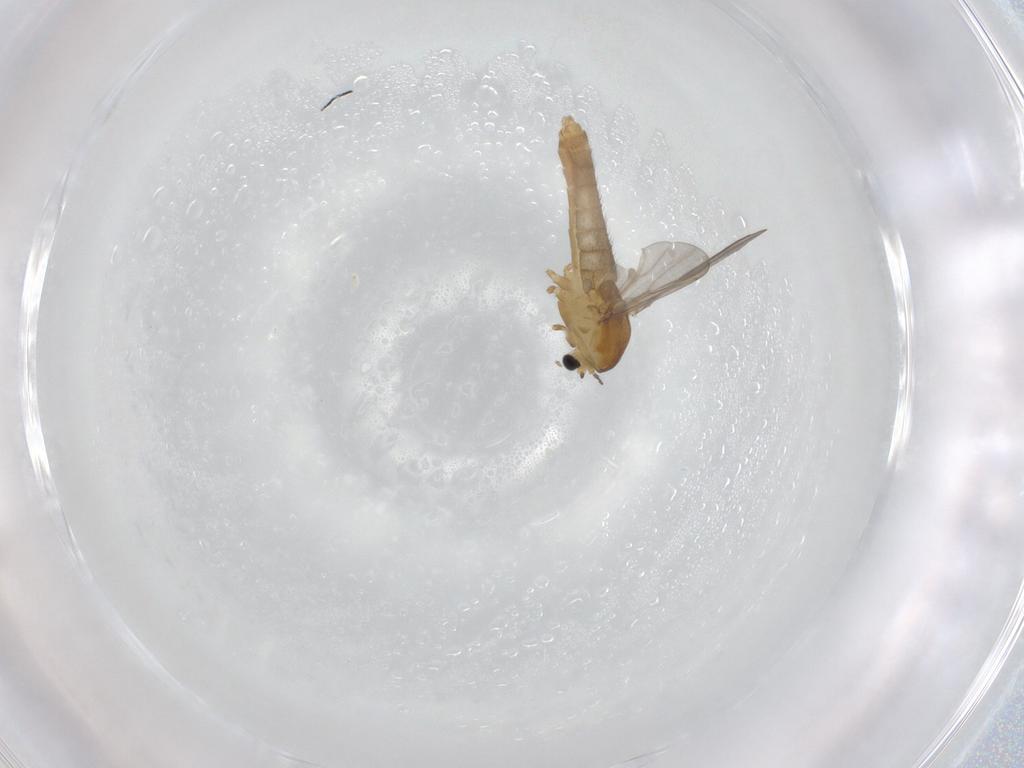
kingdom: Animalia
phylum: Arthropoda
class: Insecta
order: Diptera
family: Chironomidae
